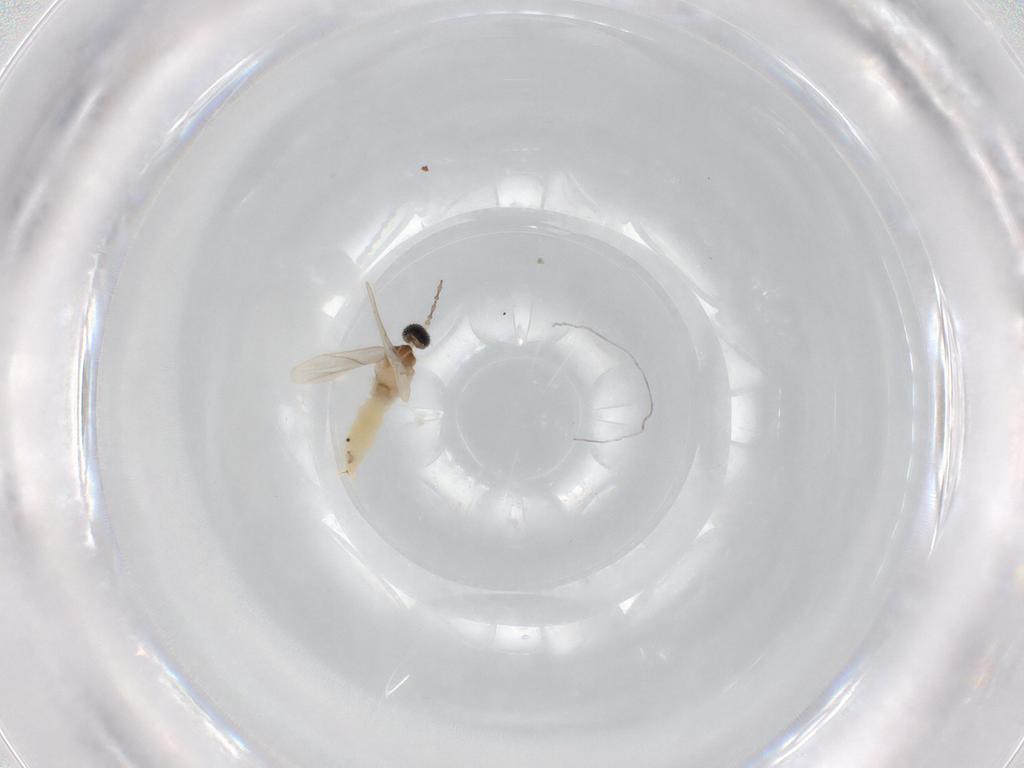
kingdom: Animalia
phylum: Arthropoda
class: Insecta
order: Diptera
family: Cecidomyiidae
